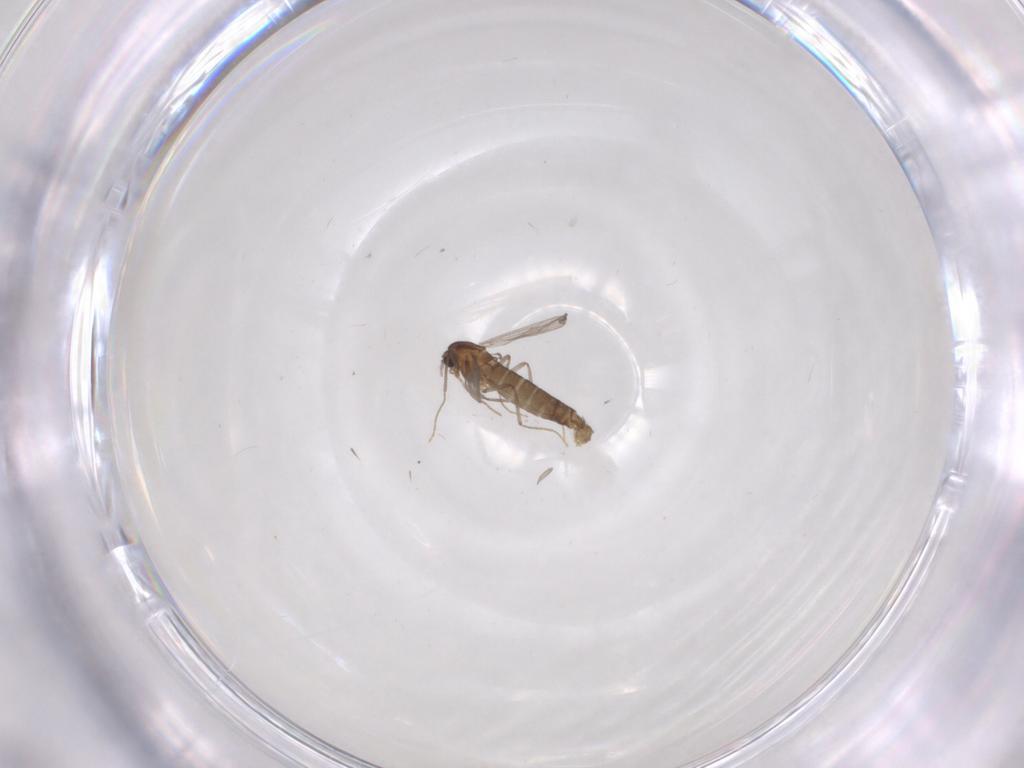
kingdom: Animalia
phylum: Arthropoda
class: Insecta
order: Diptera
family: Chironomidae
